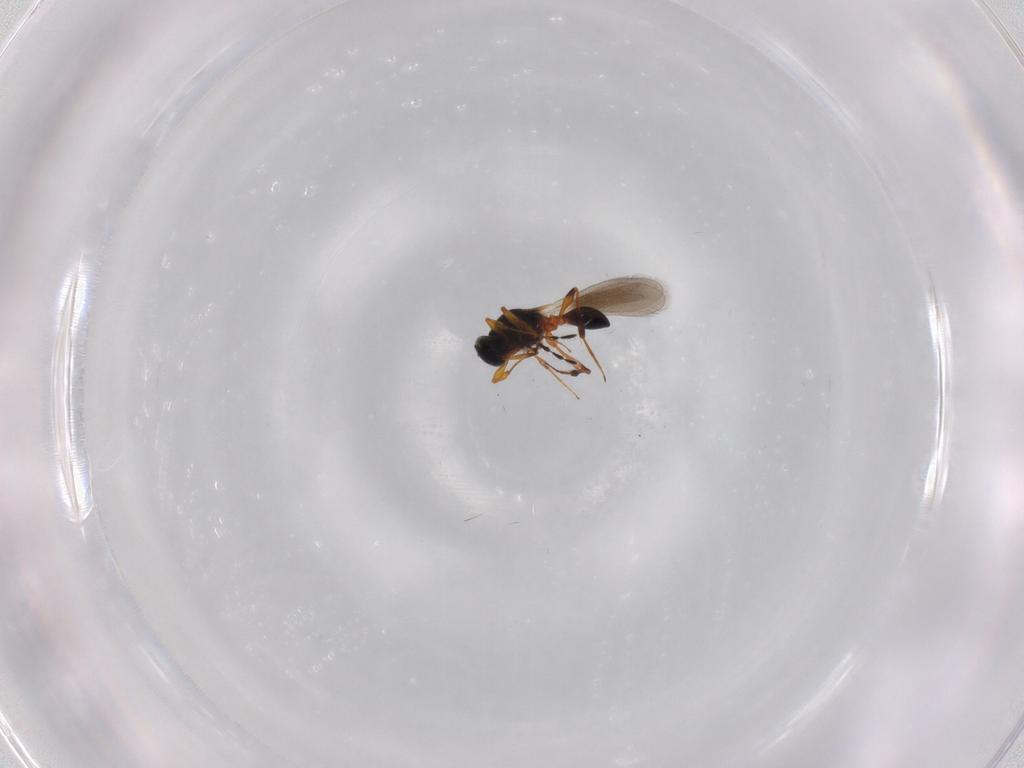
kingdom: Animalia
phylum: Arthropoda
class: Insecta
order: Hymenoptera
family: Platygastridae
